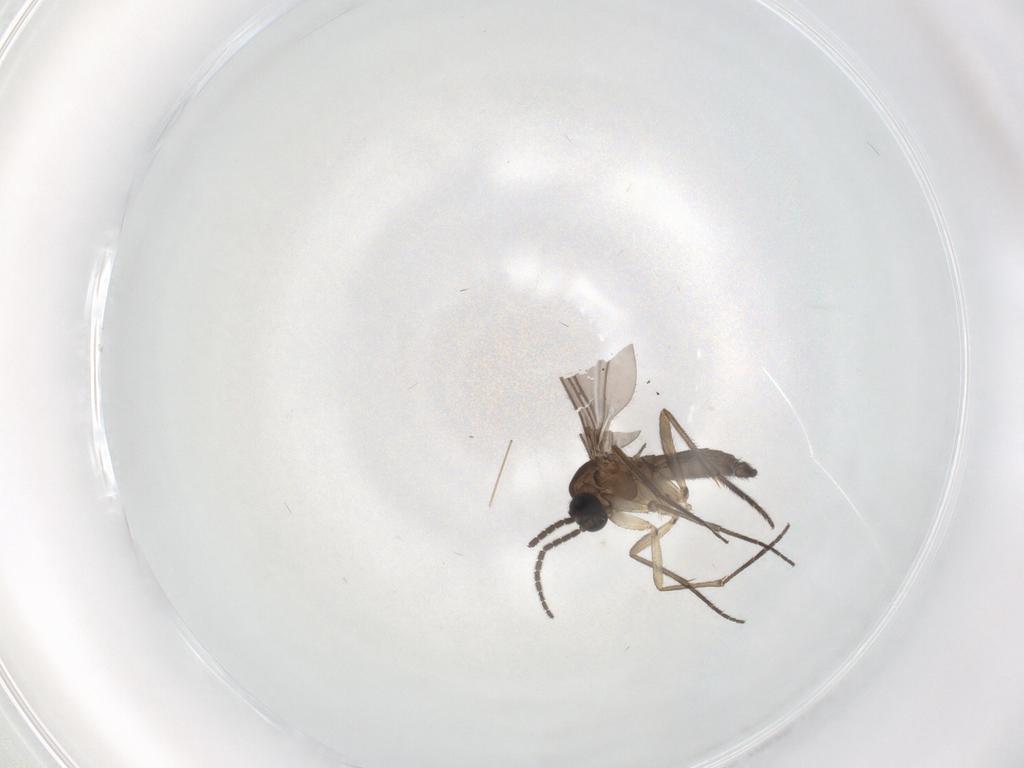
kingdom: Animalia
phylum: Arthropoda
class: Insecta
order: Diptera
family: Sciaridae
